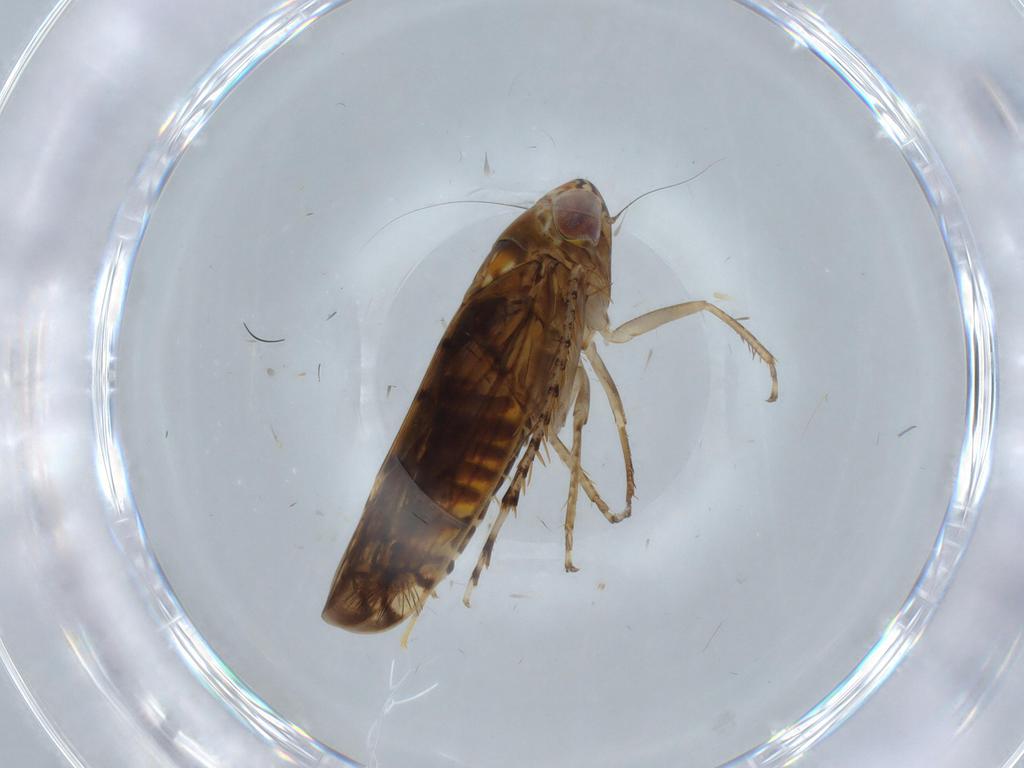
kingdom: Animalia
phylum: Arthropoda
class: Insecta
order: Hemiptera
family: Cicadellidae
